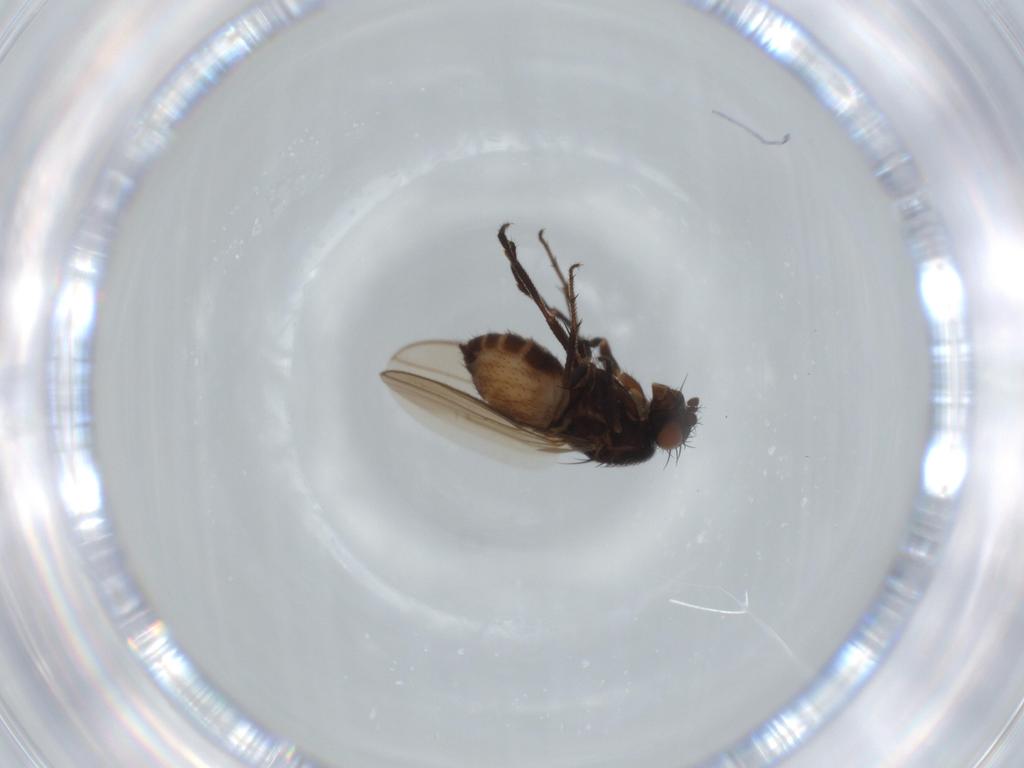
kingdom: Animalia
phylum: Arthropoda
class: Insecta
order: Diptera
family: Sphaeroceridae
